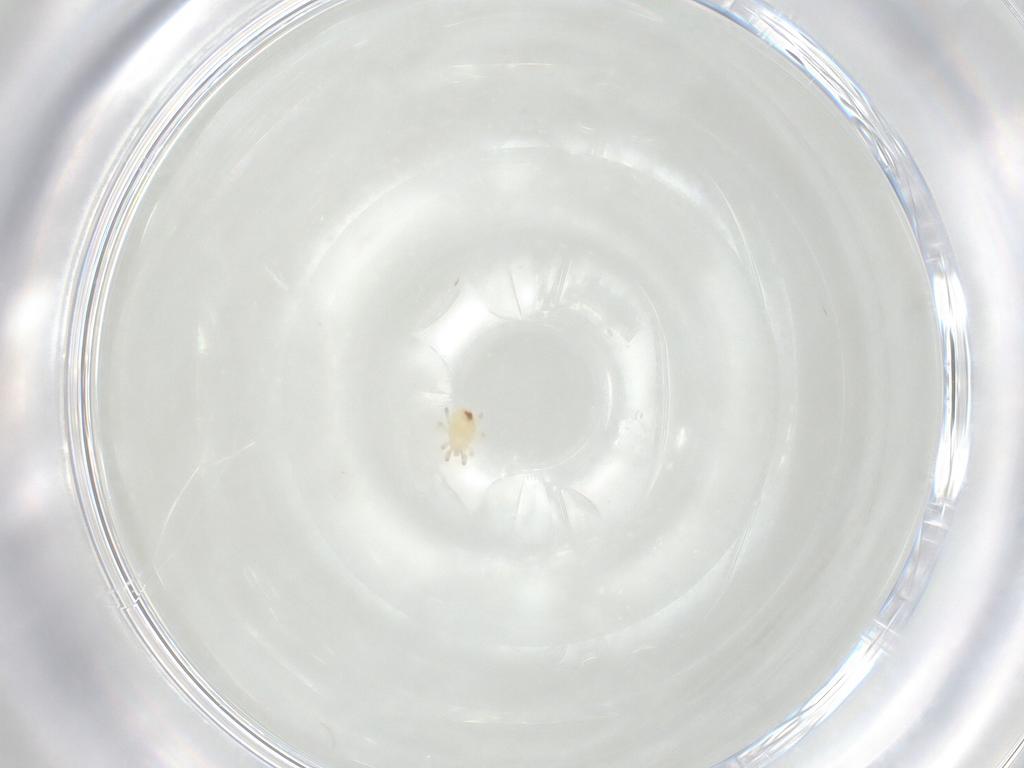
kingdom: Animalia
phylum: Arthropoda
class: Arachnida
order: Mesostigmata
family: Phytoseiidae
